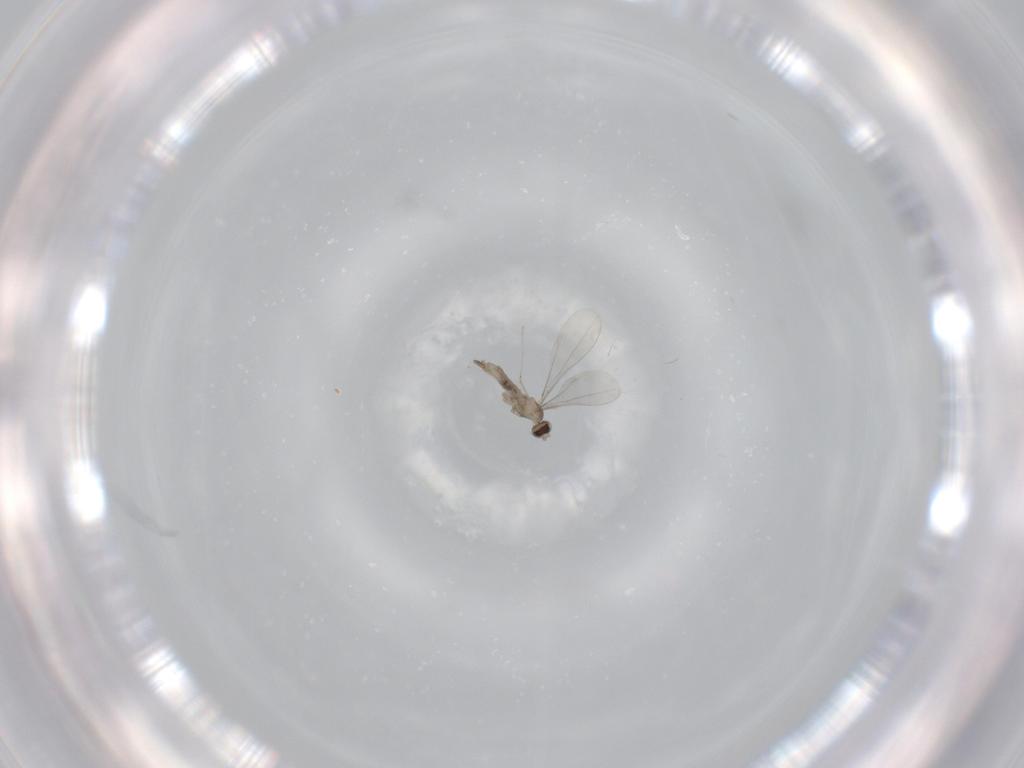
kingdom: Animalia
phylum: Arthropoda
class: Insecta
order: Diptera
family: Cecidomyiidae
